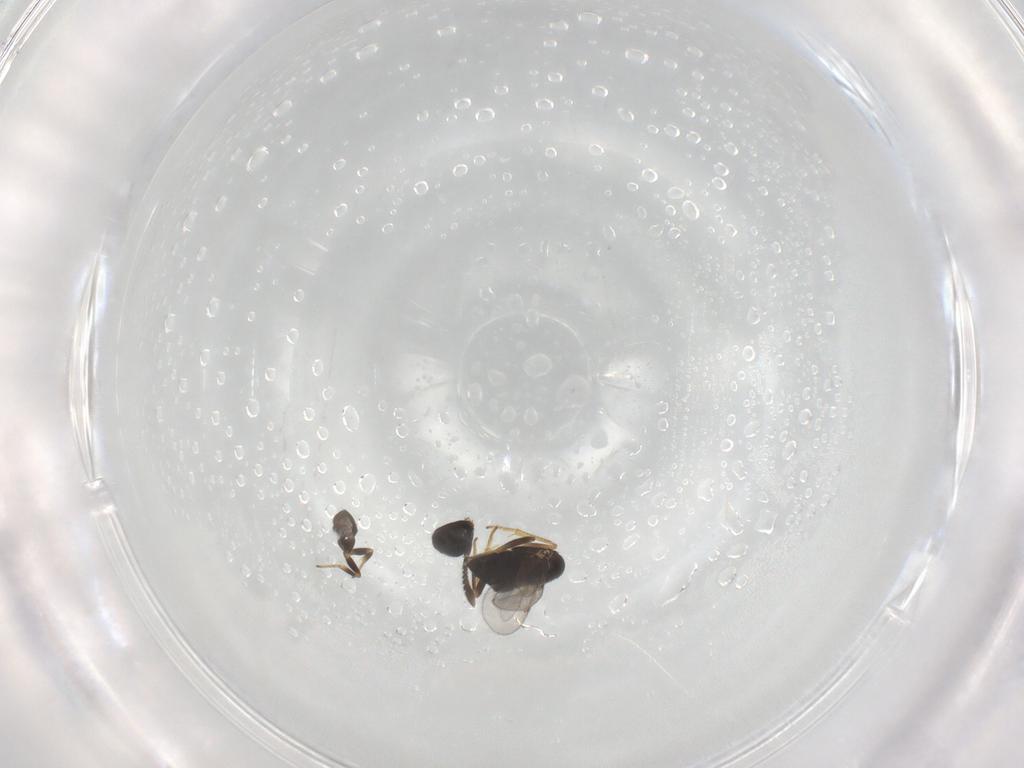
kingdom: Animalia
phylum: Arthropoda
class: Insecta
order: Hymenoptera
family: Encyrtidae
